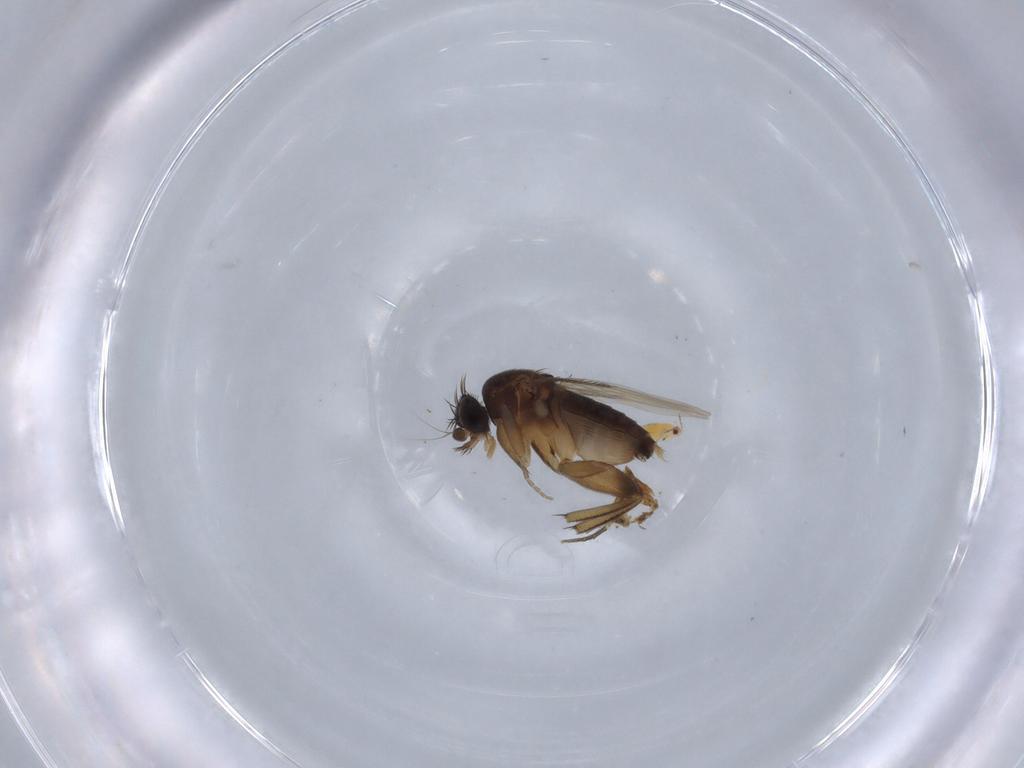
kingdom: Animalia
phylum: Arthropoda
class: Insecta
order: Diptera
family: Phoridae
